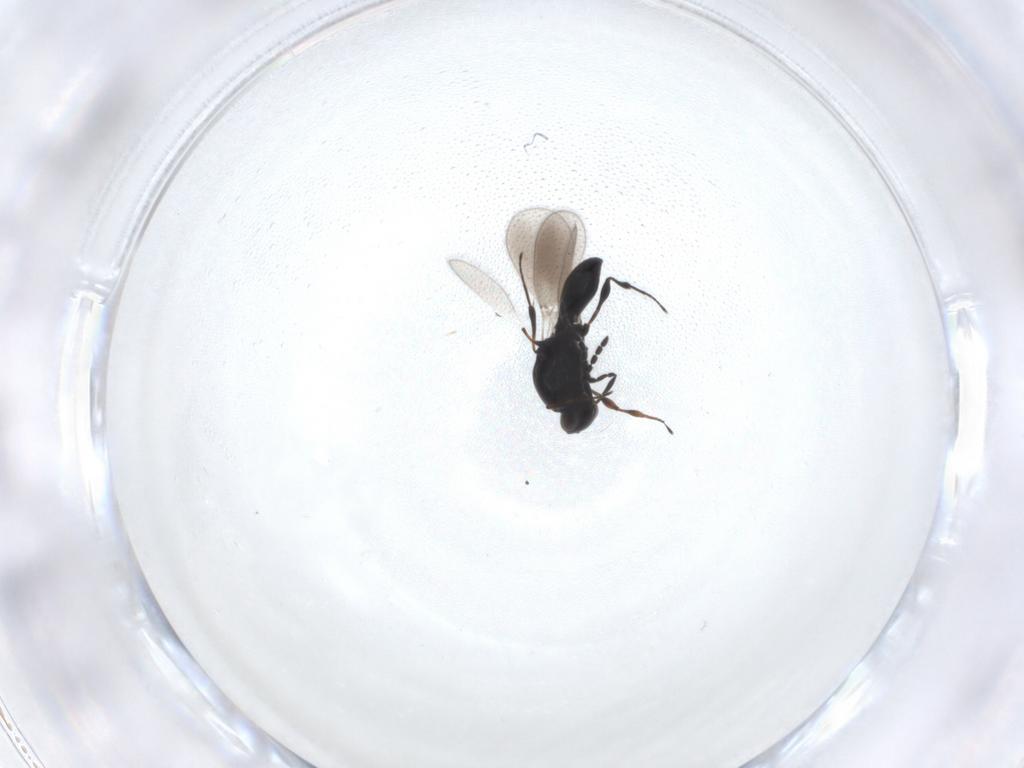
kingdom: Animalia
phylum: Arthropoda
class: Insecta
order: Hymenoptera
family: Platygastridae
